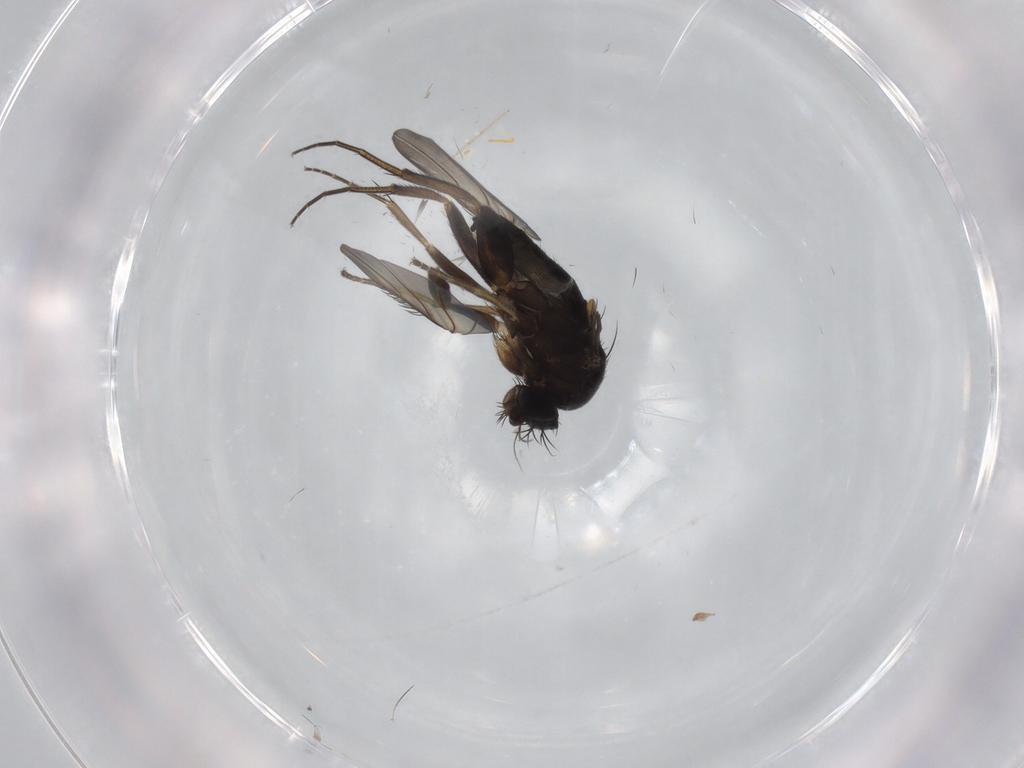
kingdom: Animalia
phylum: Arthropoda
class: Insecta
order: Diptera
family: Phoridae
